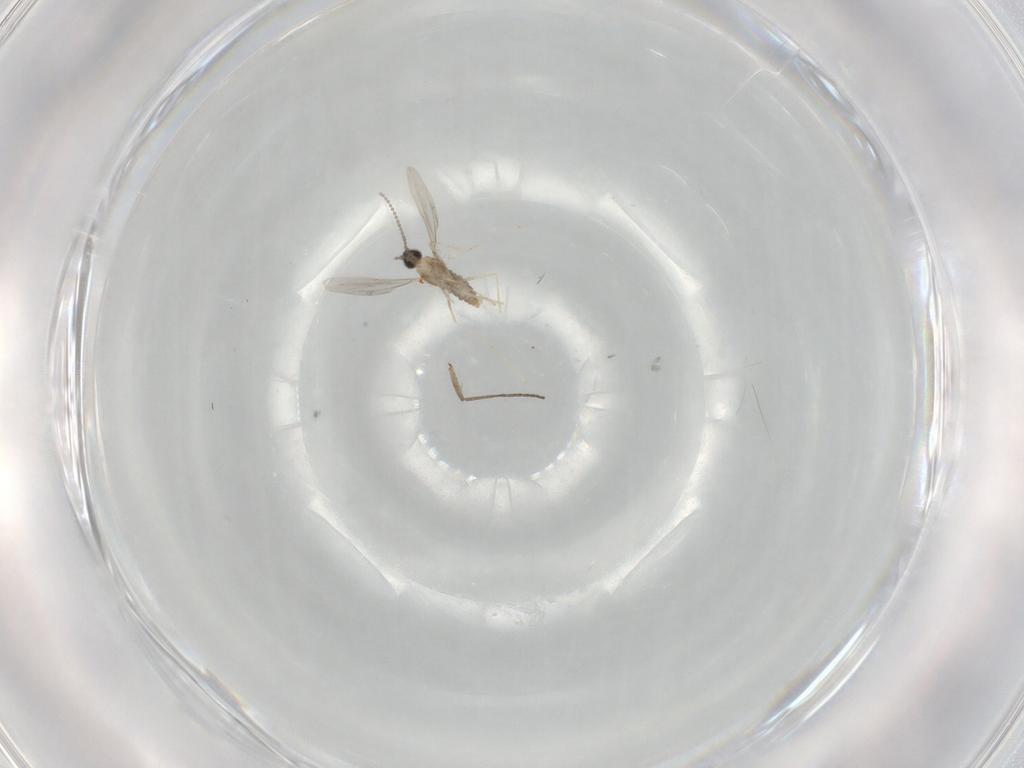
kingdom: Animalia
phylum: Arthropoda
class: Insecta
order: Diptera
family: Cecidomyiidae
